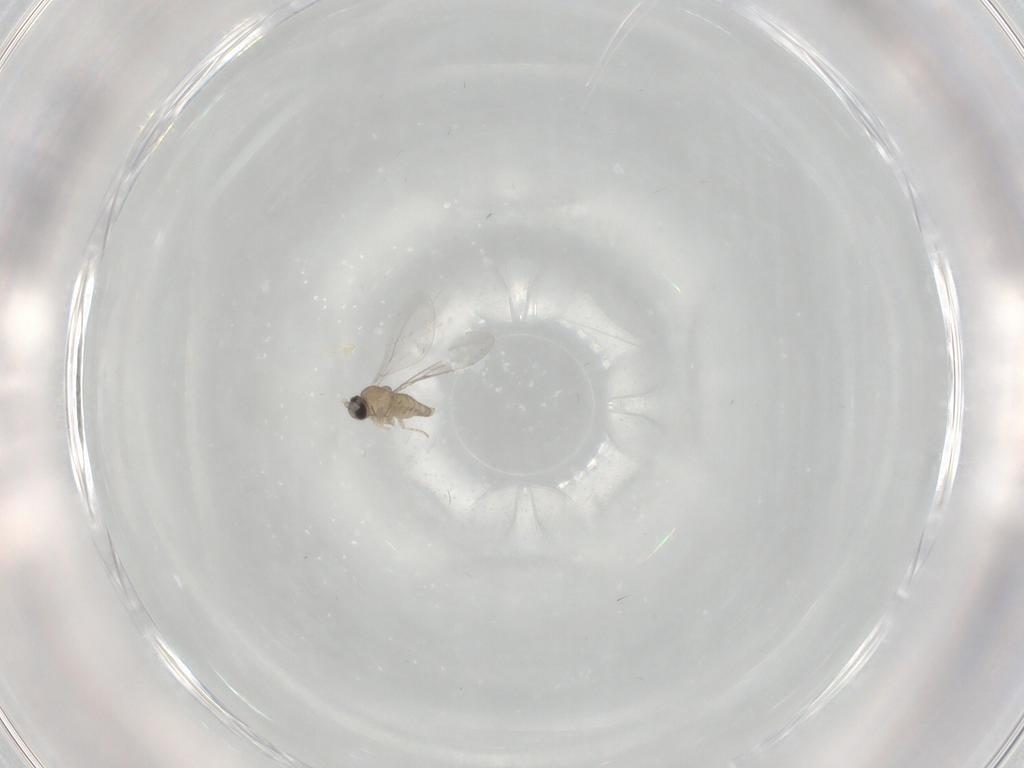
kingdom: Animalia
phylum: Arthropoda
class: Insecta
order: Diptera
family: Cecidomyiidae
